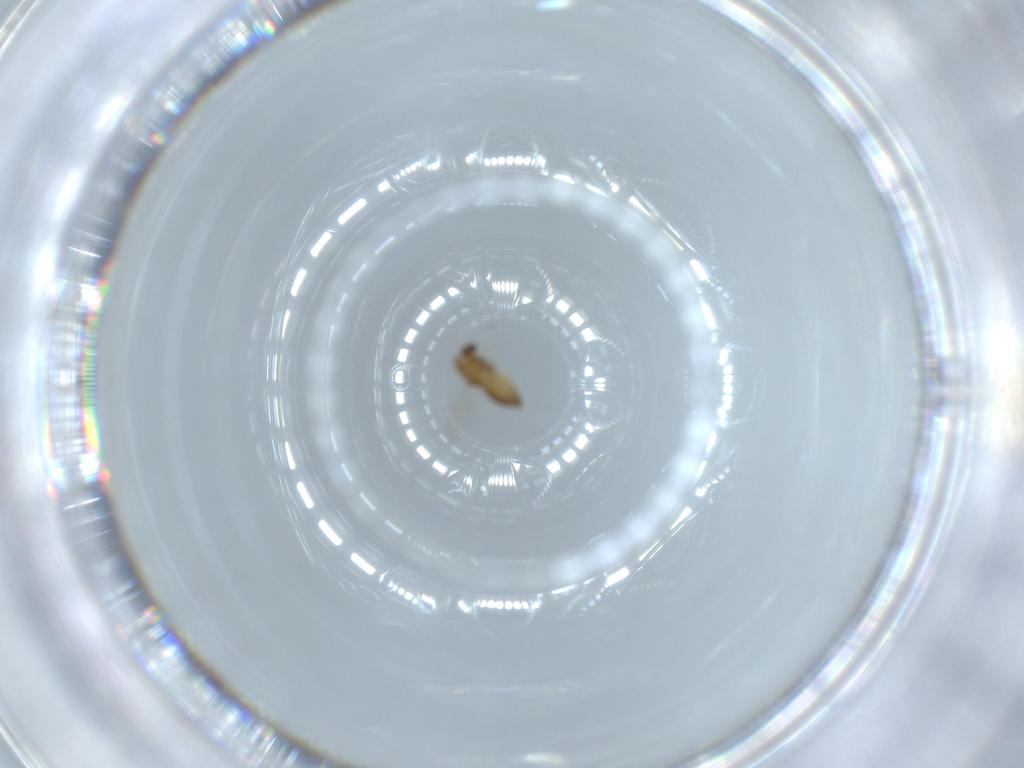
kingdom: Animalia
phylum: Arthropoda
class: Insecta
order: Diptera
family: Chironomidae
